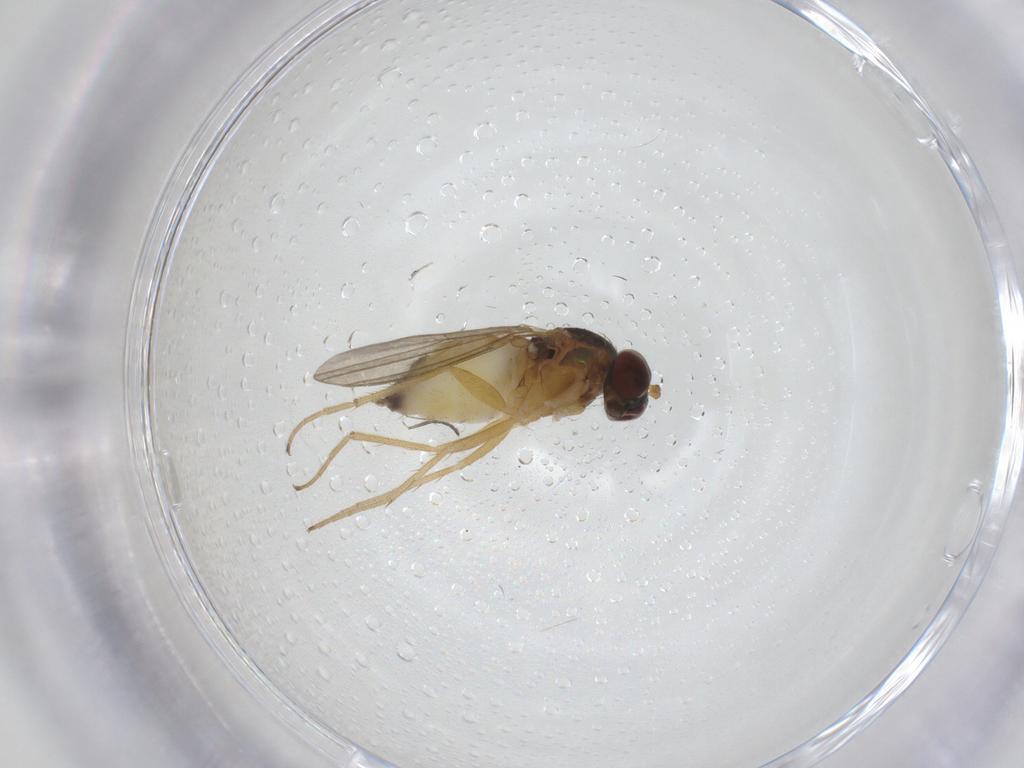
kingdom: Animalia
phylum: Arthropoda
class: Insecta
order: Diptera
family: Dolichopodidae
